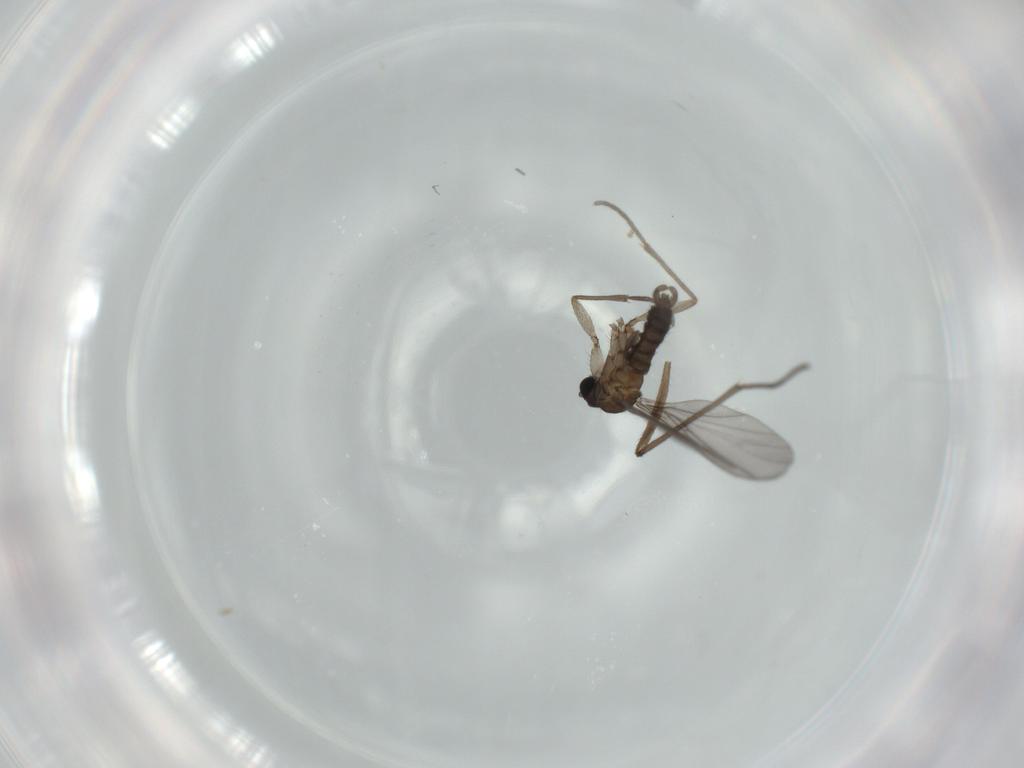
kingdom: Animalia
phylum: Arthropoda
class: Insecta
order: Diptera
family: Sciaridae
